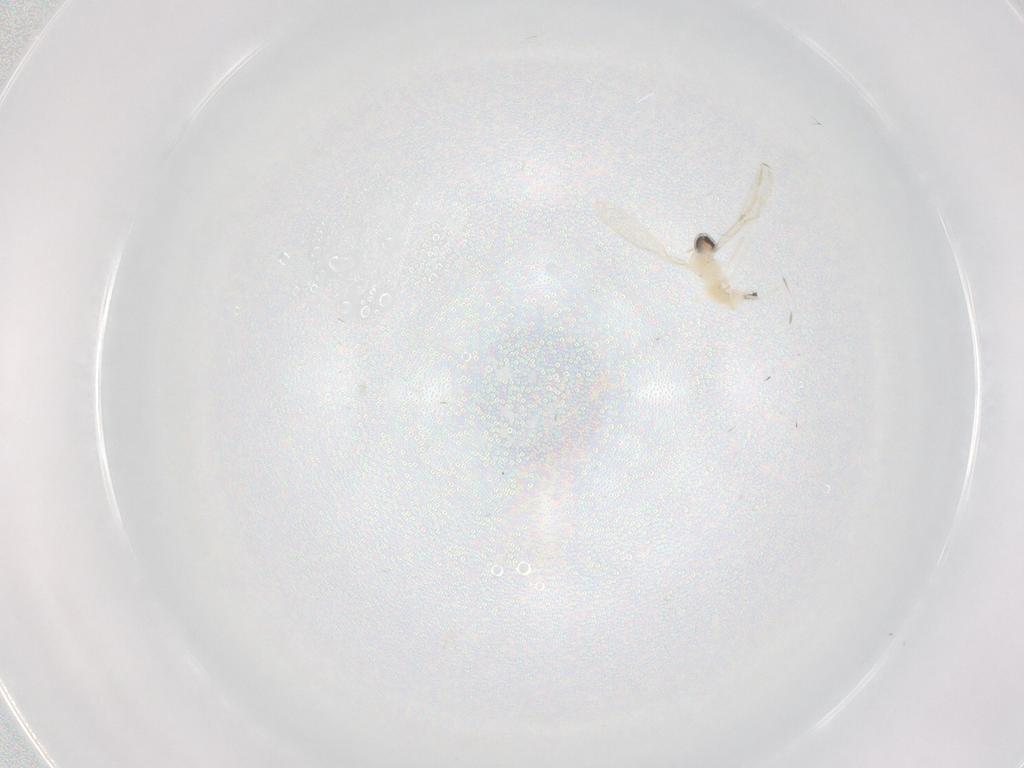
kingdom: Animalia
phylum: Arthropoda
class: Insecta
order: Diptera
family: Sciaridae
